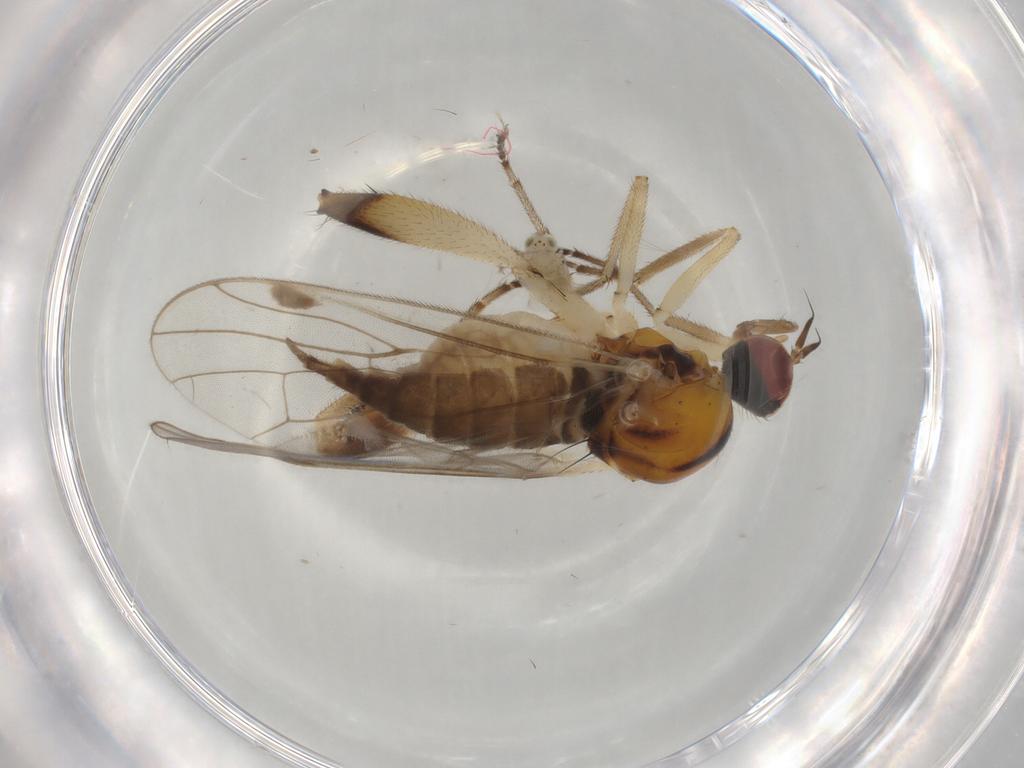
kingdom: Animalia
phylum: Arthropoda
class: Insecta
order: Diptera
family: Hybotidae
